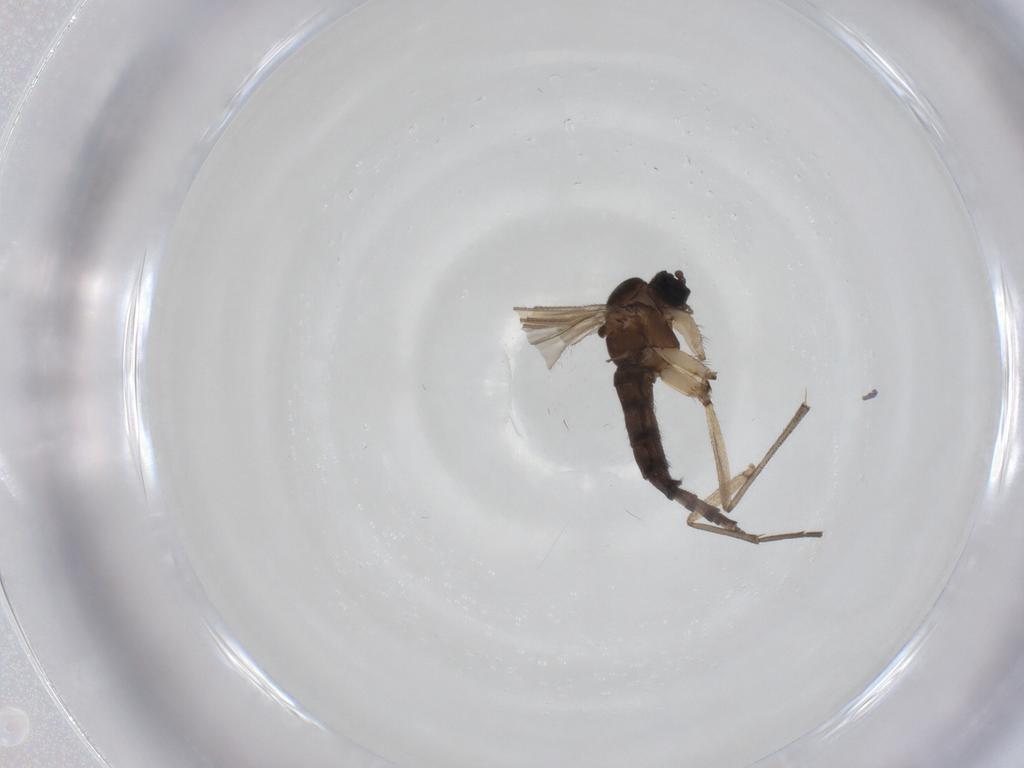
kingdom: Animalia
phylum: Arthropoda
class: Insecta
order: Diptera
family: Sciaridae
